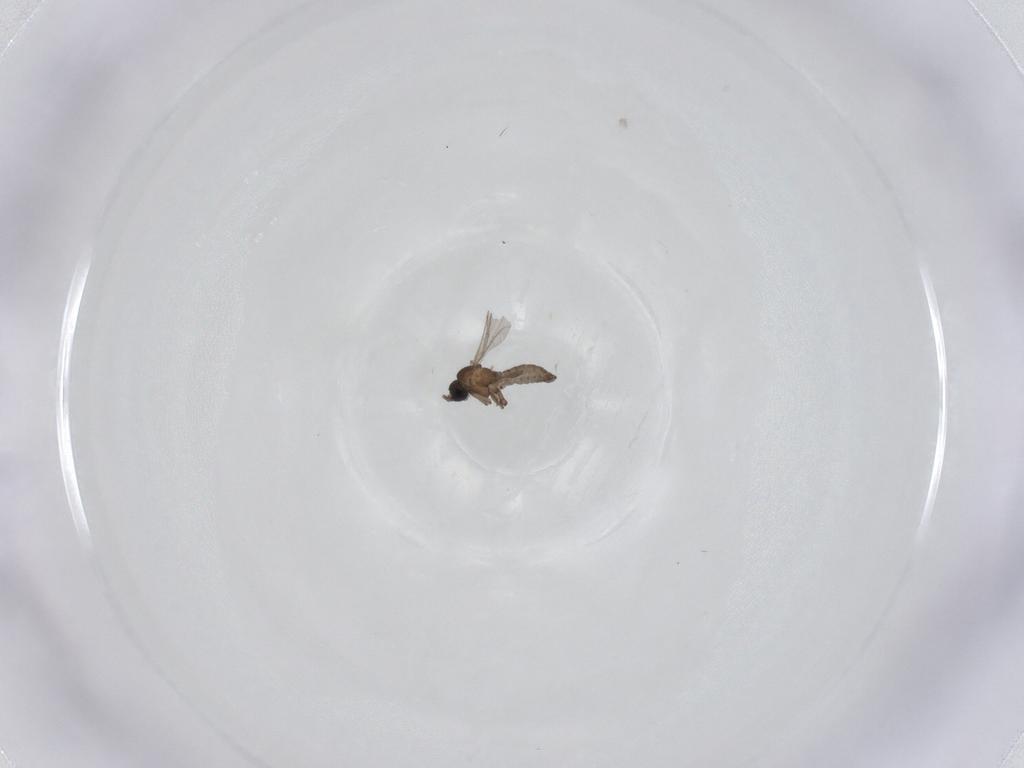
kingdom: Animalia
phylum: Arthropoda
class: Insecta
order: Diptera
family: Sciaridae
